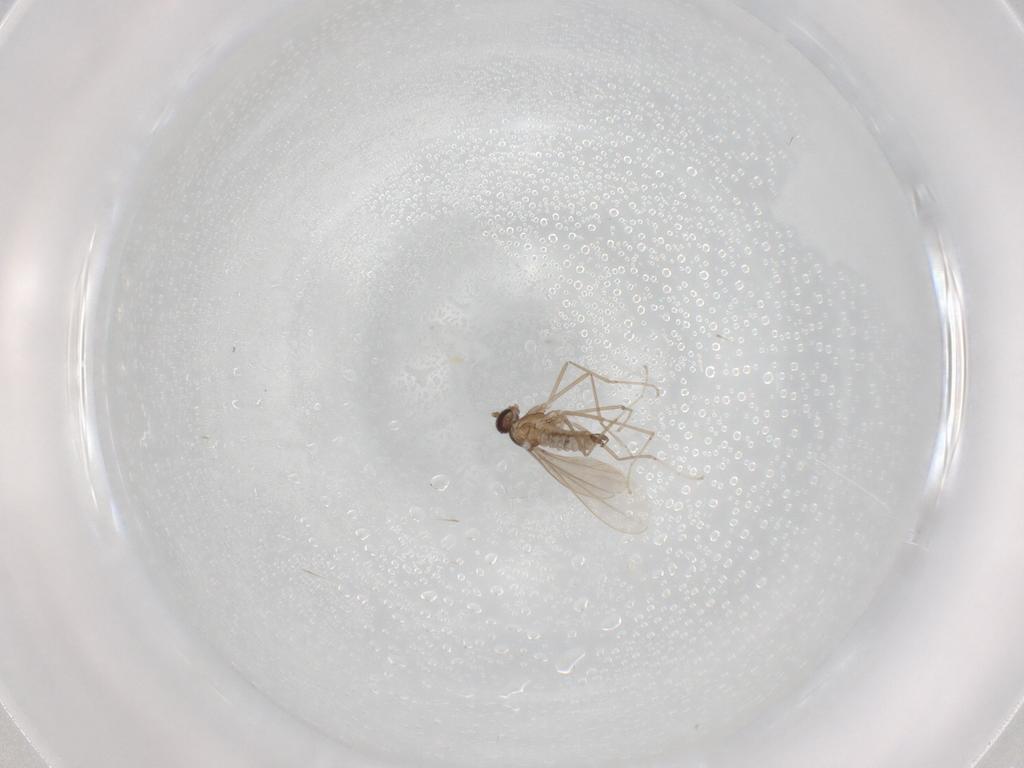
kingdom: Animalia
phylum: Arthropoda
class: Insecta
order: Diptera
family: Cecidomyiidae
